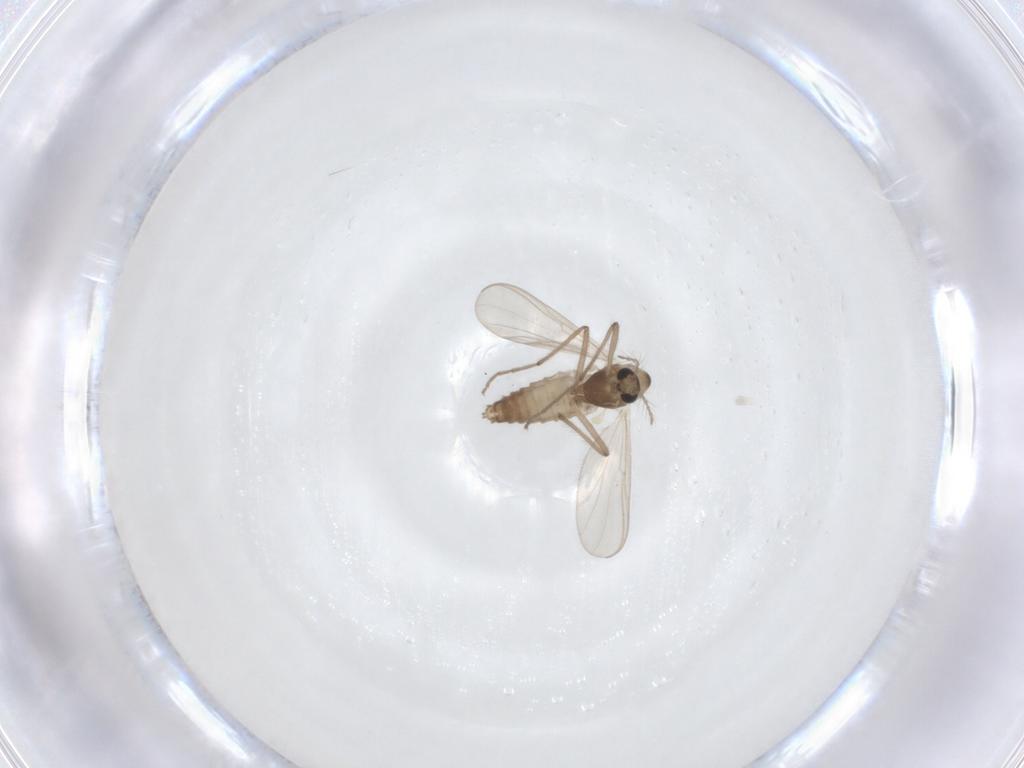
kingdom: Animalia
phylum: Arthropoda
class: Insecta
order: Diptera
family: Chironomidae
